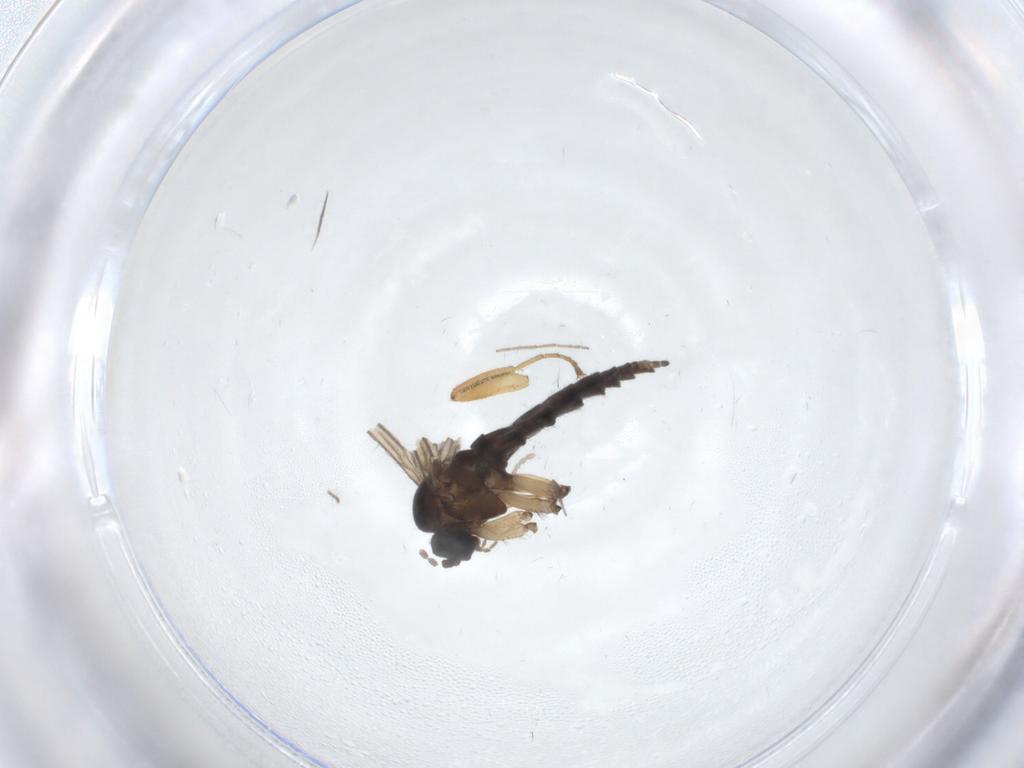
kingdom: Animalia
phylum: Arthropoda
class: Insecta
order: Diptera
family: Sciaridae
